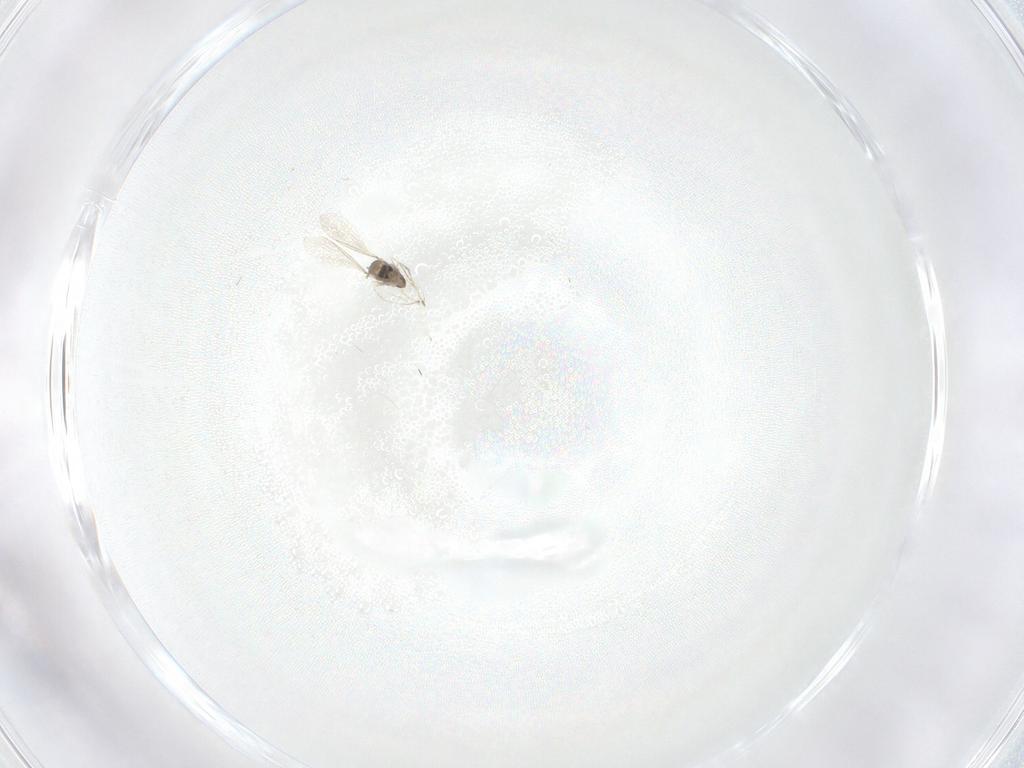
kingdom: Animalia
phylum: Arthropoda
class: Insecta
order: Diptera
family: Cecidomyiidae
